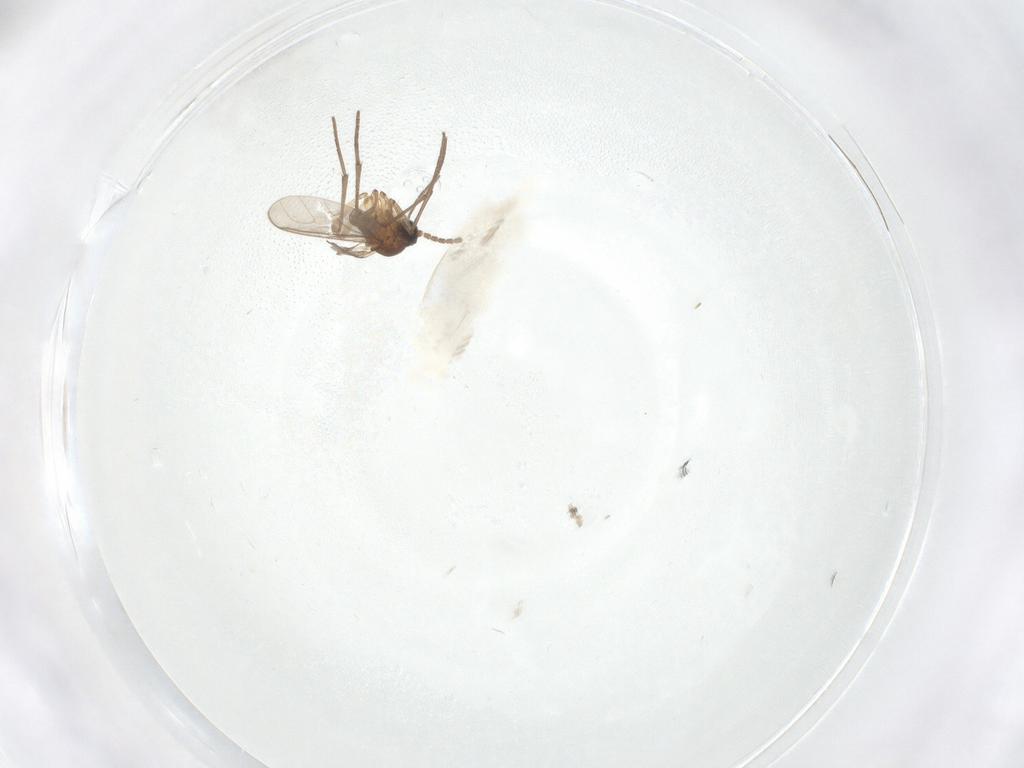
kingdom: Animalia
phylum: Arthropoda
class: Insecta
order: Diptera
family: Sciaridae
